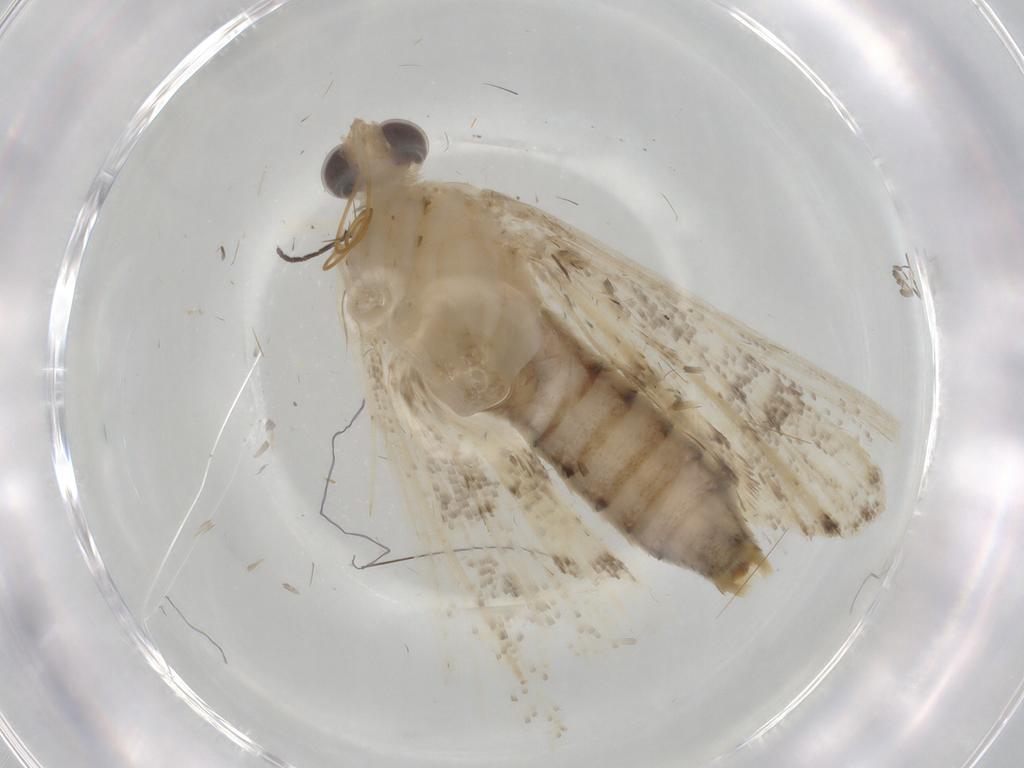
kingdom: Animalia
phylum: Arthropoda
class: Insecta
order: Lepidoptera
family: Crambidae
